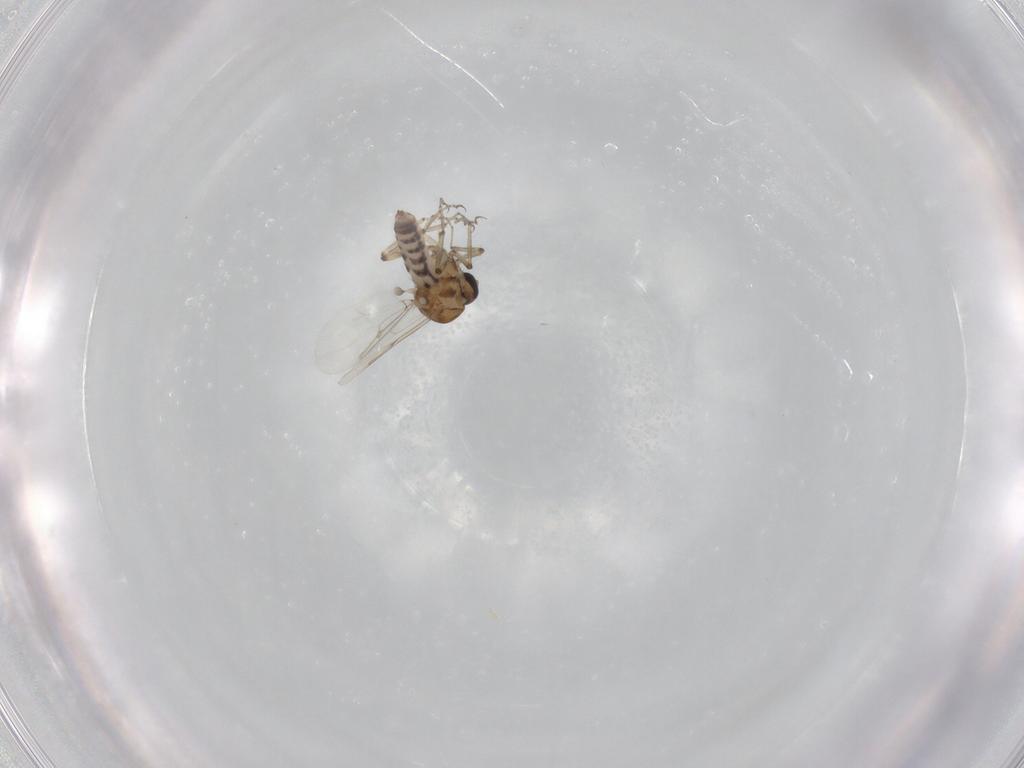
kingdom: Animalia
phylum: Arthropoda
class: Insecta
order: Diptera
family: Ceratopogonidae
